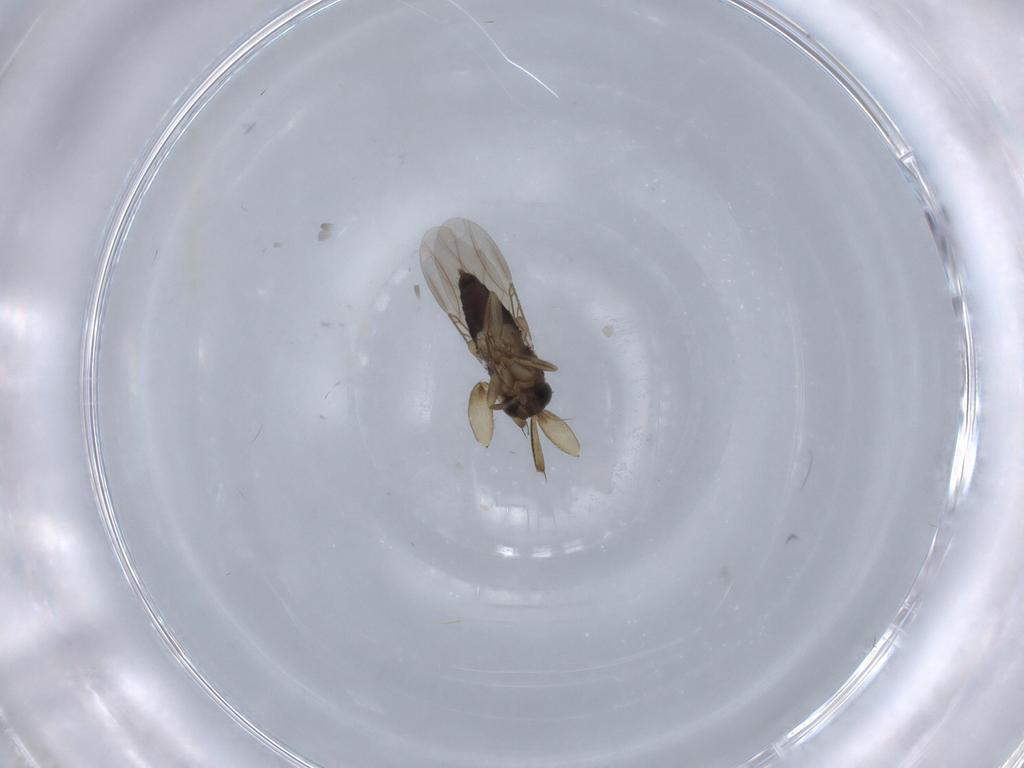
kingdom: Animalia
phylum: Arthropoda
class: Insecta
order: Diptera
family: Phoridae
